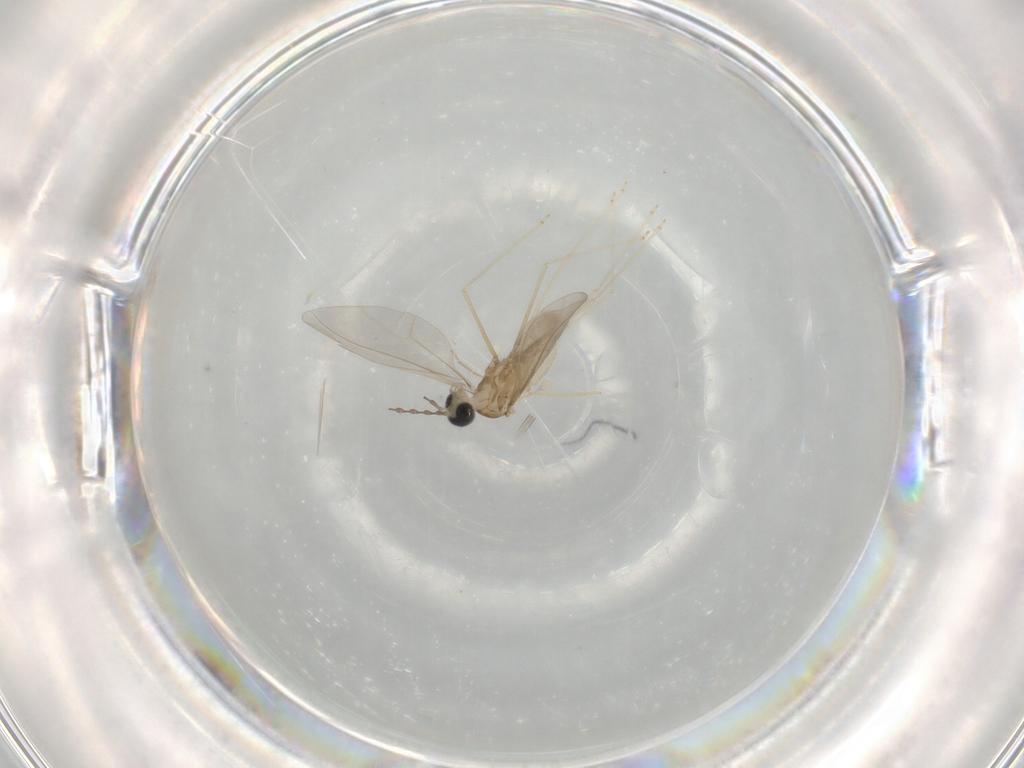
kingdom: Animalia
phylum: Arthropoda
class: Insecta
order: Diptera
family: Cecidomyiidae
